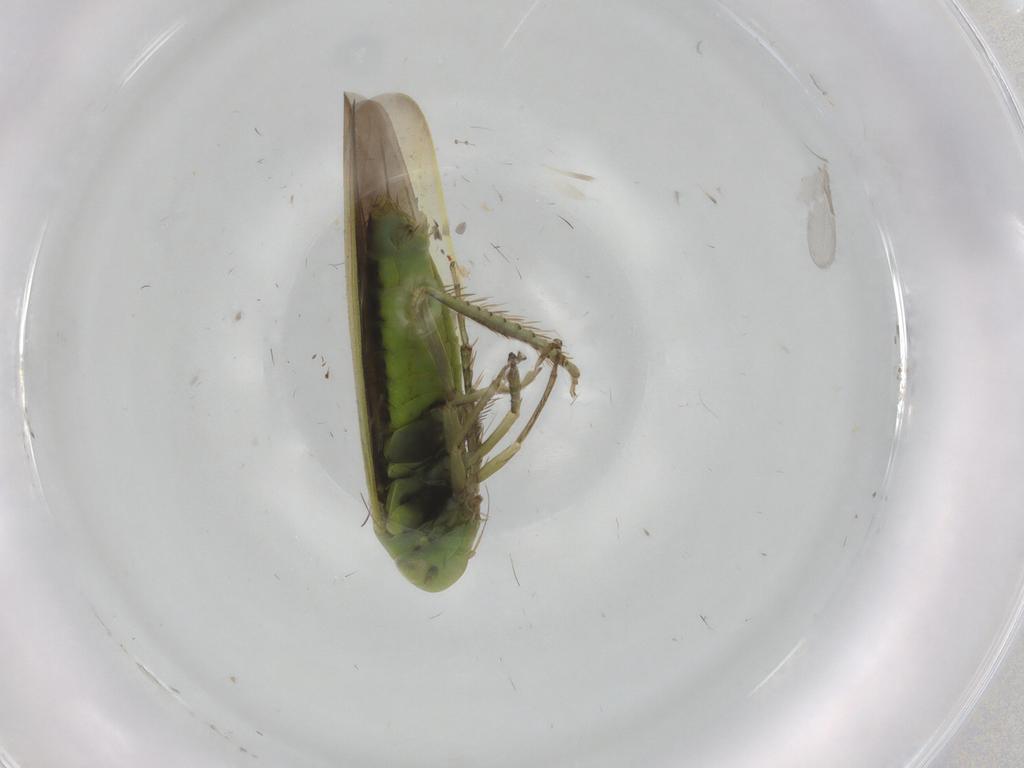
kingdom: Animalia
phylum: Arthropoda
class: Insecta
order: Hemiptera
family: Cicadellidae
